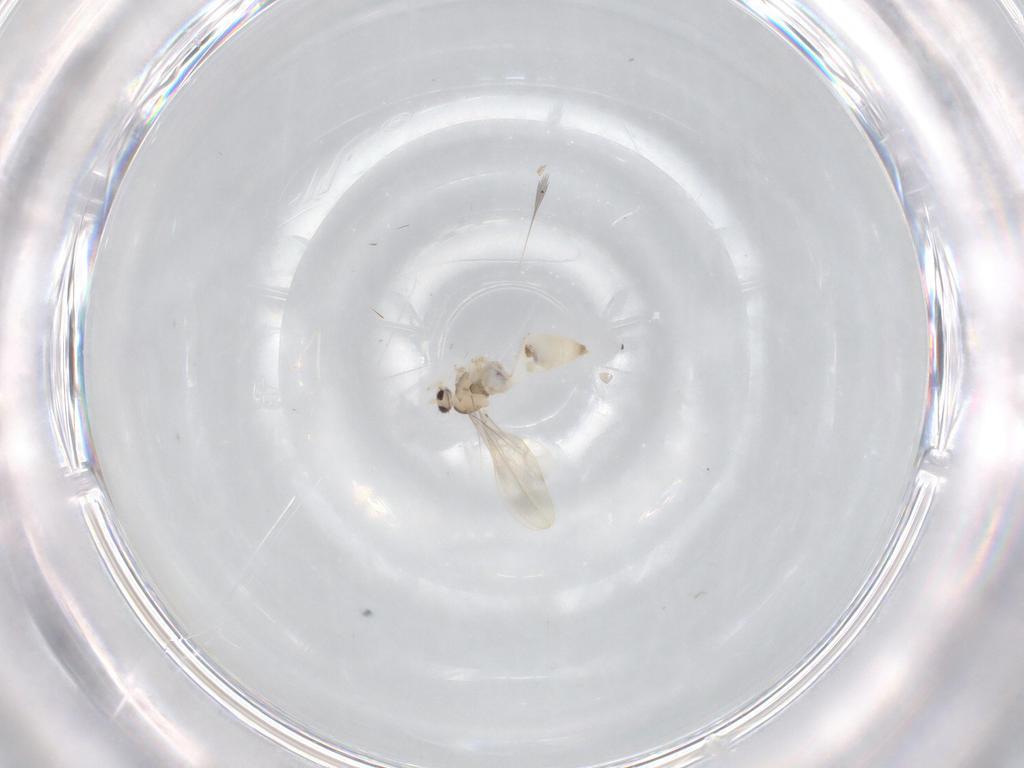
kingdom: Animalia
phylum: Arthropoda
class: Insecta
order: Diptera
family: Cecidomyiidae
